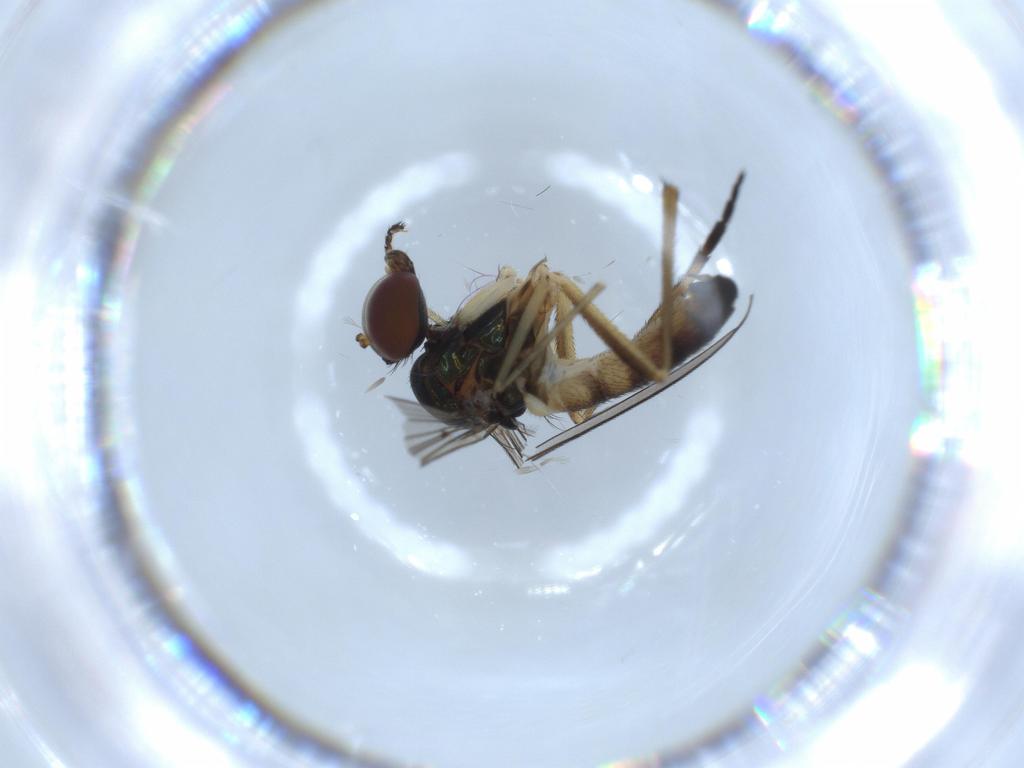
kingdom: Animalia
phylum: Arthropoda
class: Insecta
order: Diptera
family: Dolichopodidae
